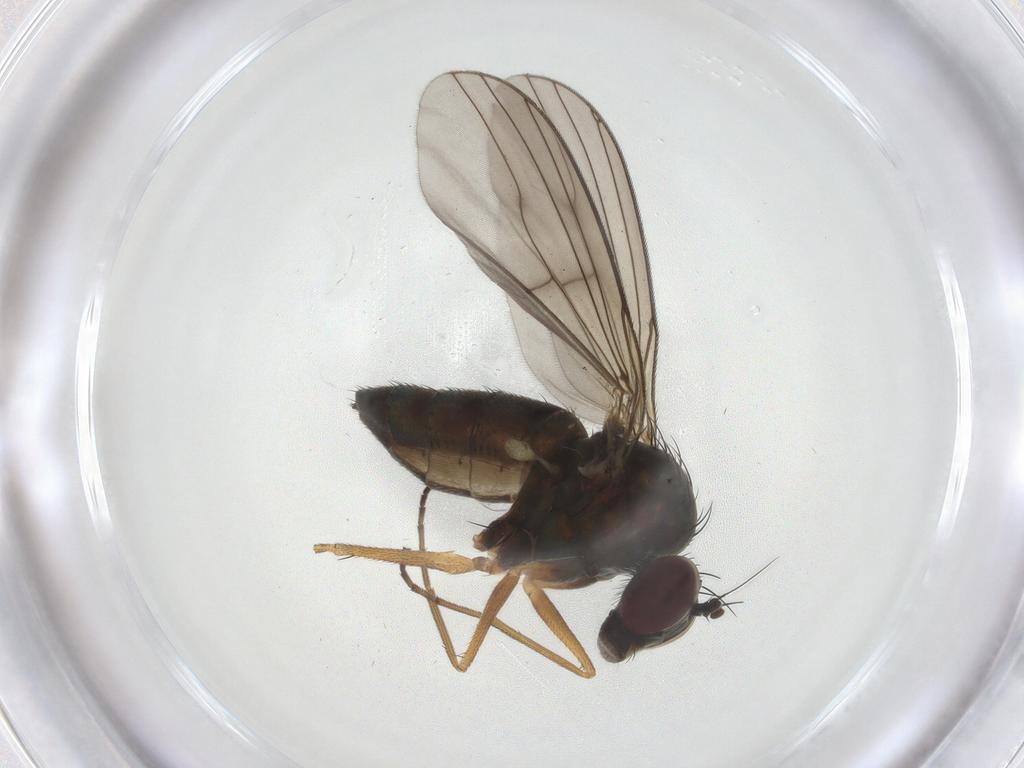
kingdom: Animalia
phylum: Arthropoda
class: Insecta
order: Diptera
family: Dolichopodidae
